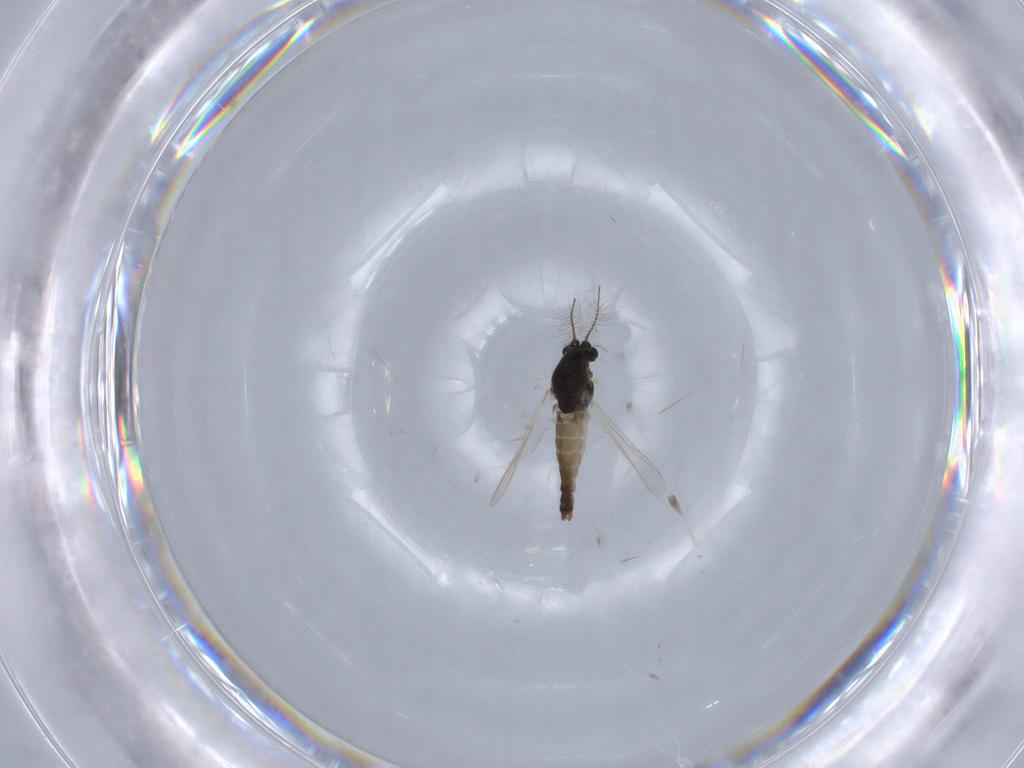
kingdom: Animalia
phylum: Arthropoda
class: Insecta
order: Diptera
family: Chironomidae
